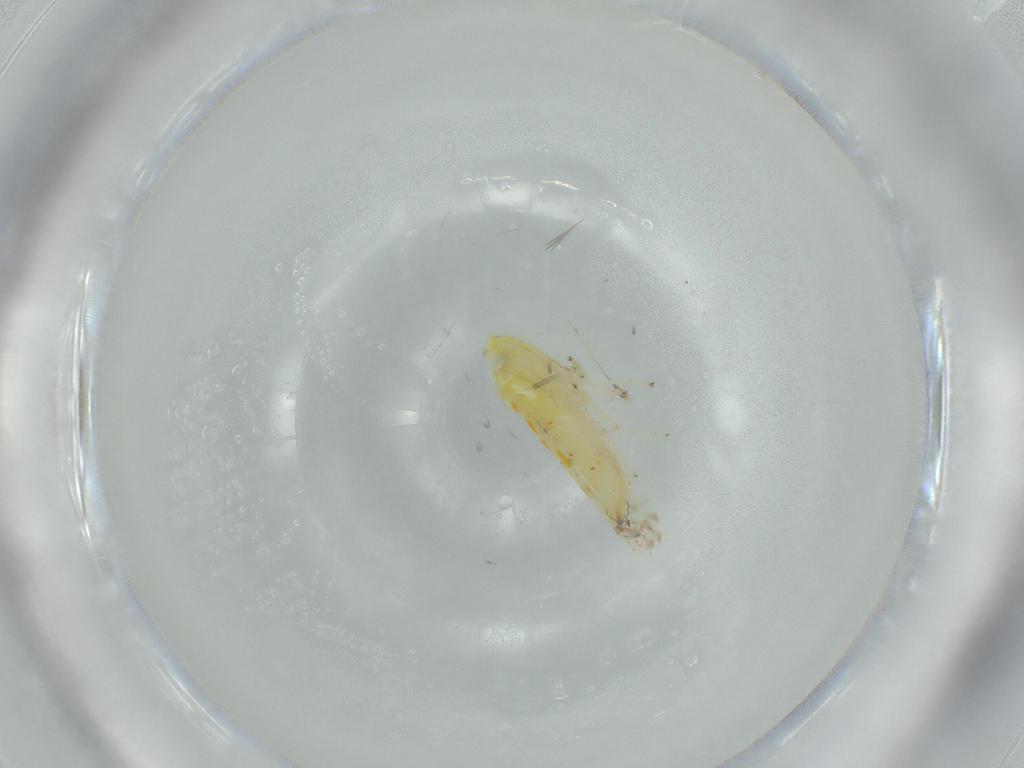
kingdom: Animalia
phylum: Arthropoda
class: Insecta
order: Hemiptera
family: Cicadellidae
